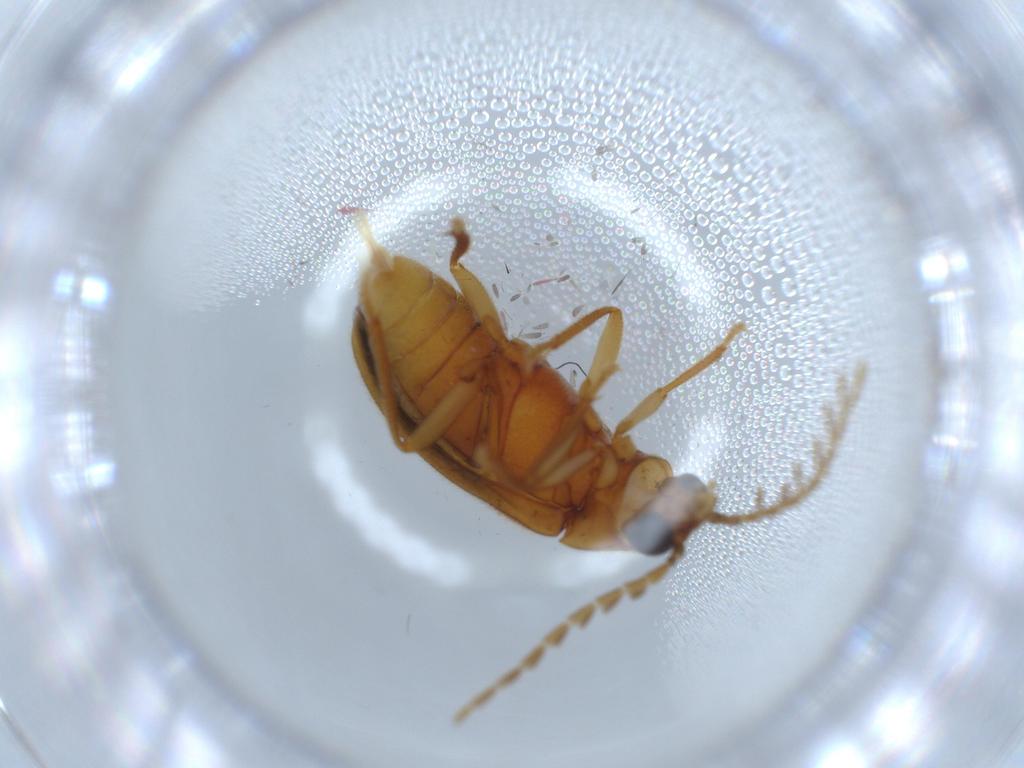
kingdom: Animalia
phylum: Arthropoda
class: Insecta
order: Coleoptera
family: Ptilodactylidae
